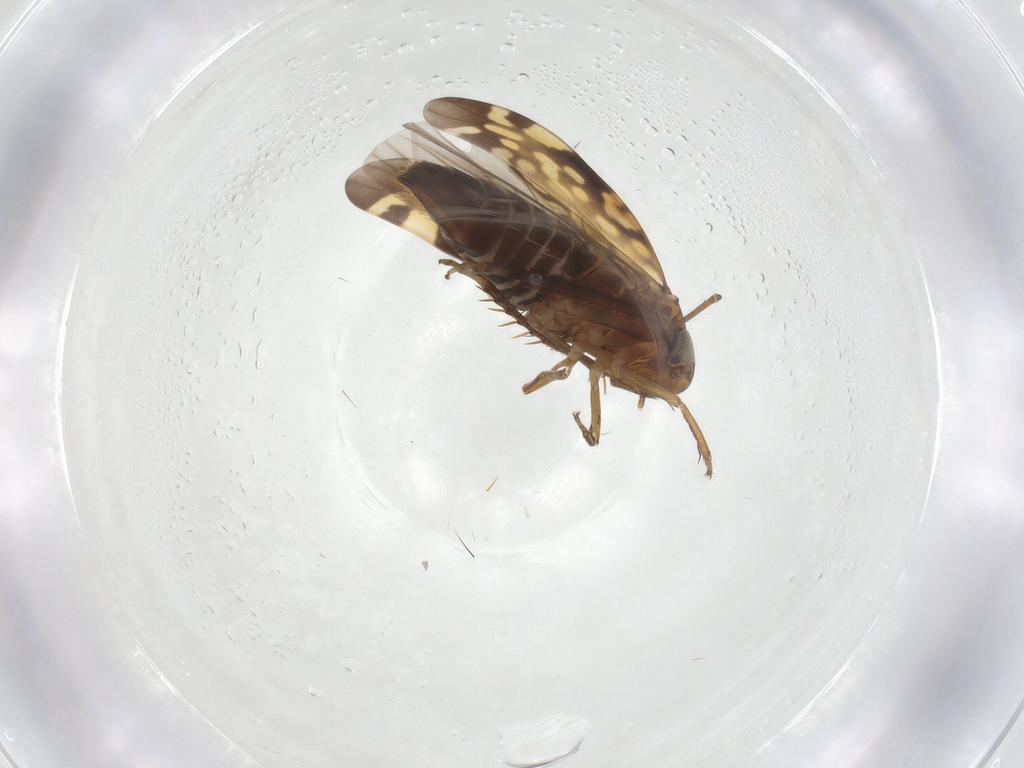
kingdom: Animalia
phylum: Arthropoda
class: Insecta
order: Hemiptera
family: Cicadellidae
